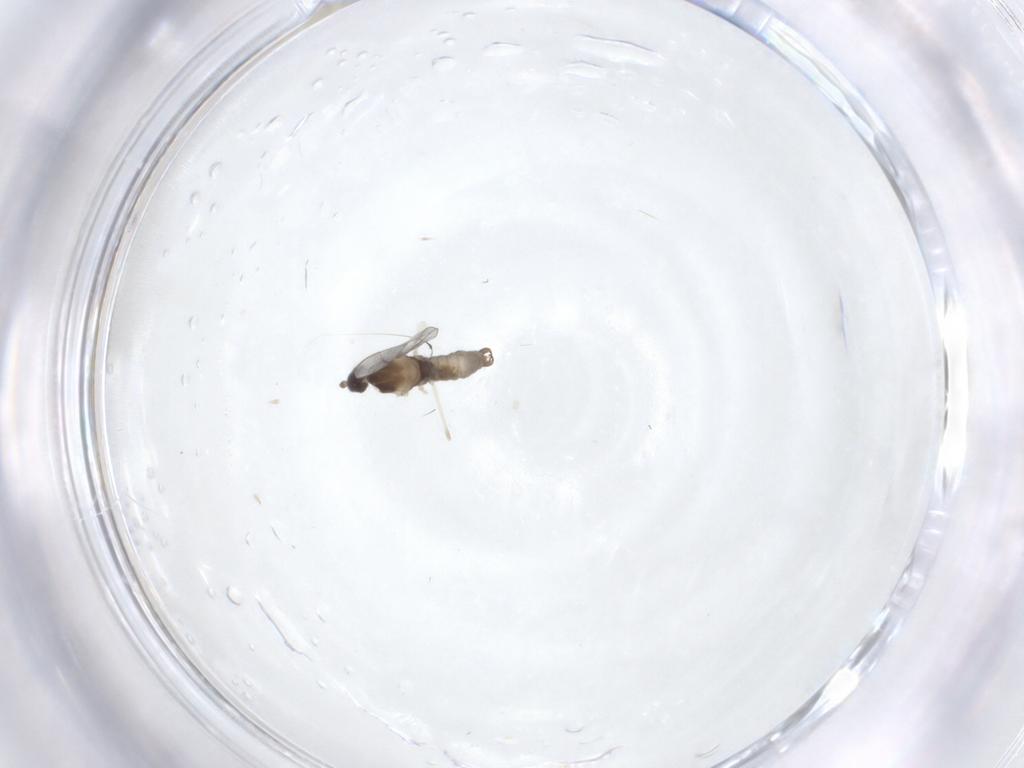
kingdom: Animalia
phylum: Arthropoda
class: Insecta
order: Diptera
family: Cecidomyiidae
